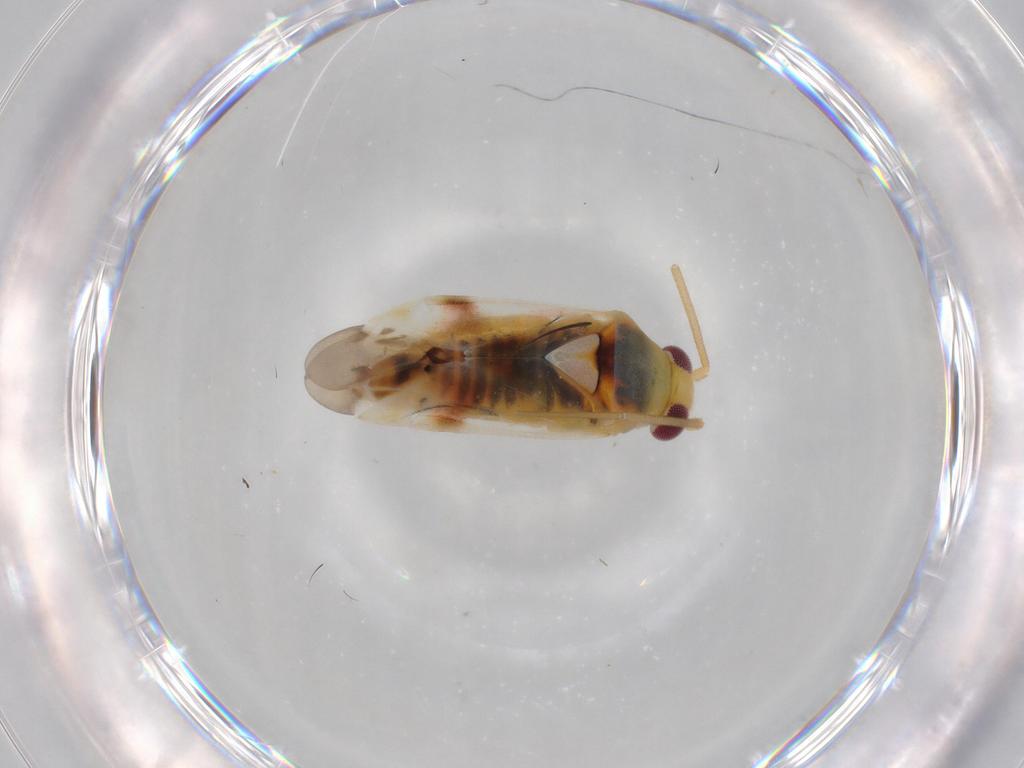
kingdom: Animalia
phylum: Arthropoda
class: Insecta
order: Hemiptera
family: Miridae
